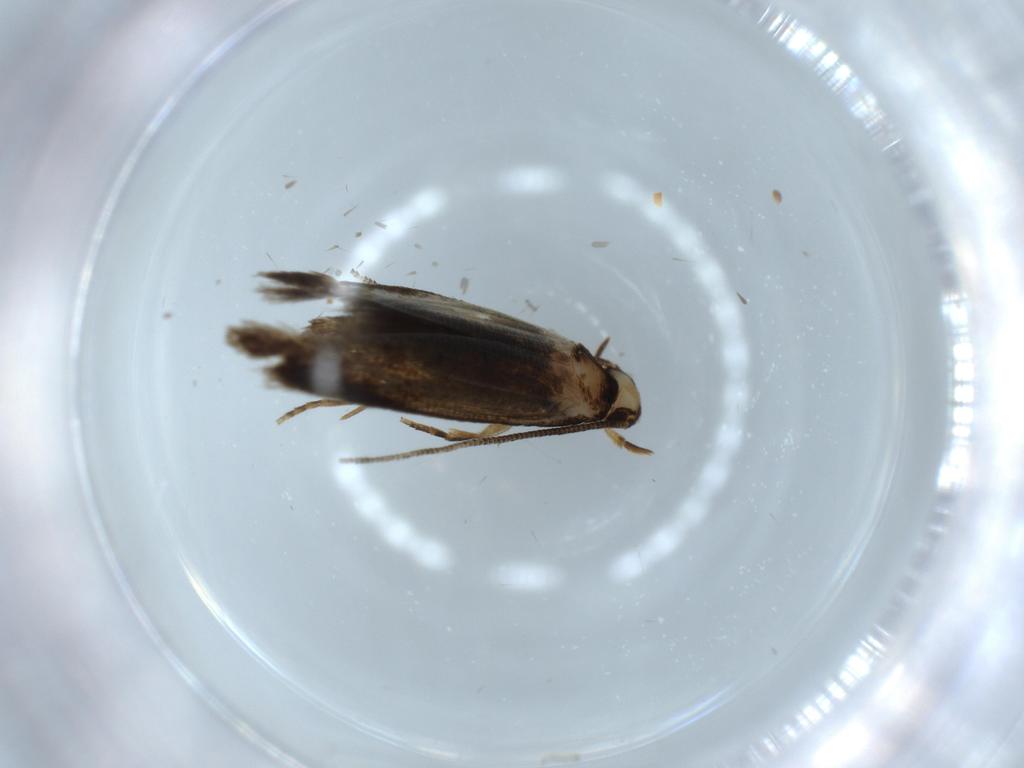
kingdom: Animalia
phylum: Arthropoda
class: Insecta
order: Lepidoptera
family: Tineidae
